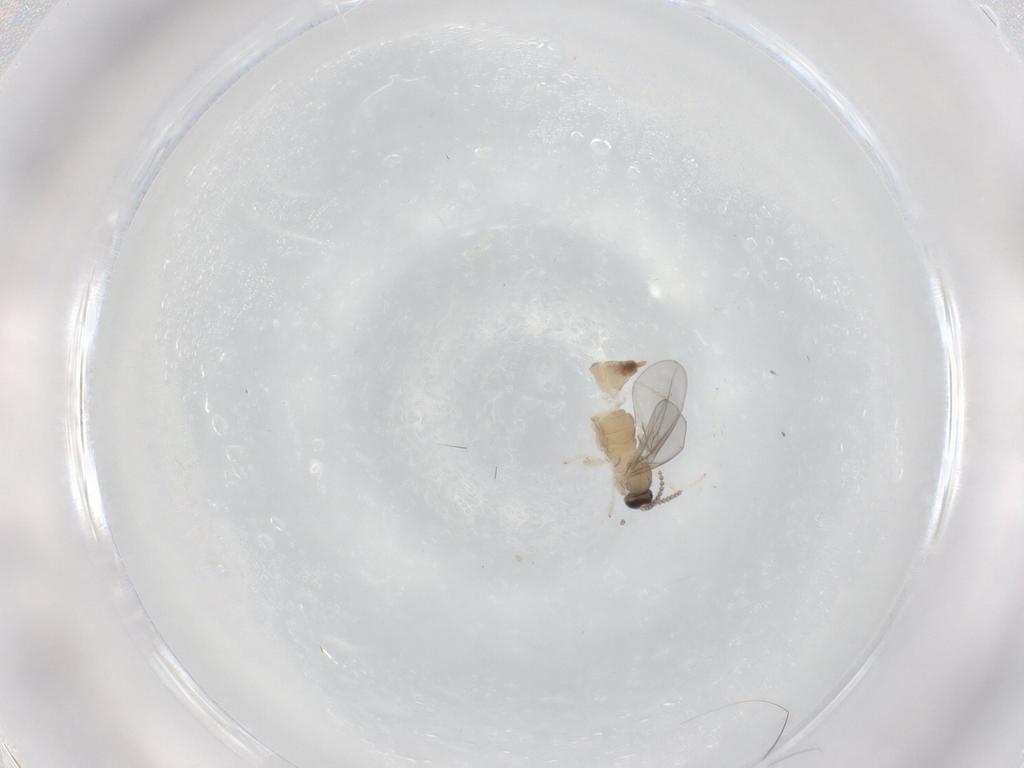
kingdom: Animalia
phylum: Arthropoda
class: Insecta
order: Diptera
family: Cecidomyiidae
